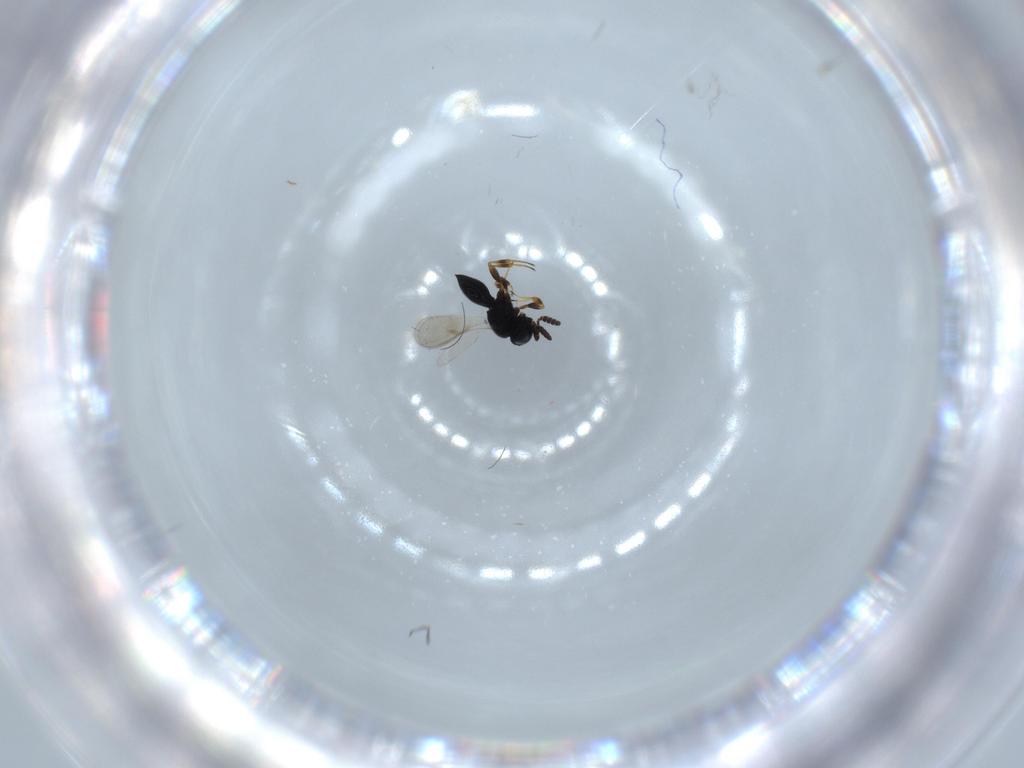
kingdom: Animalia
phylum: Arthropoda
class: Insecta
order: Hymenoptera
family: Scelionidae
